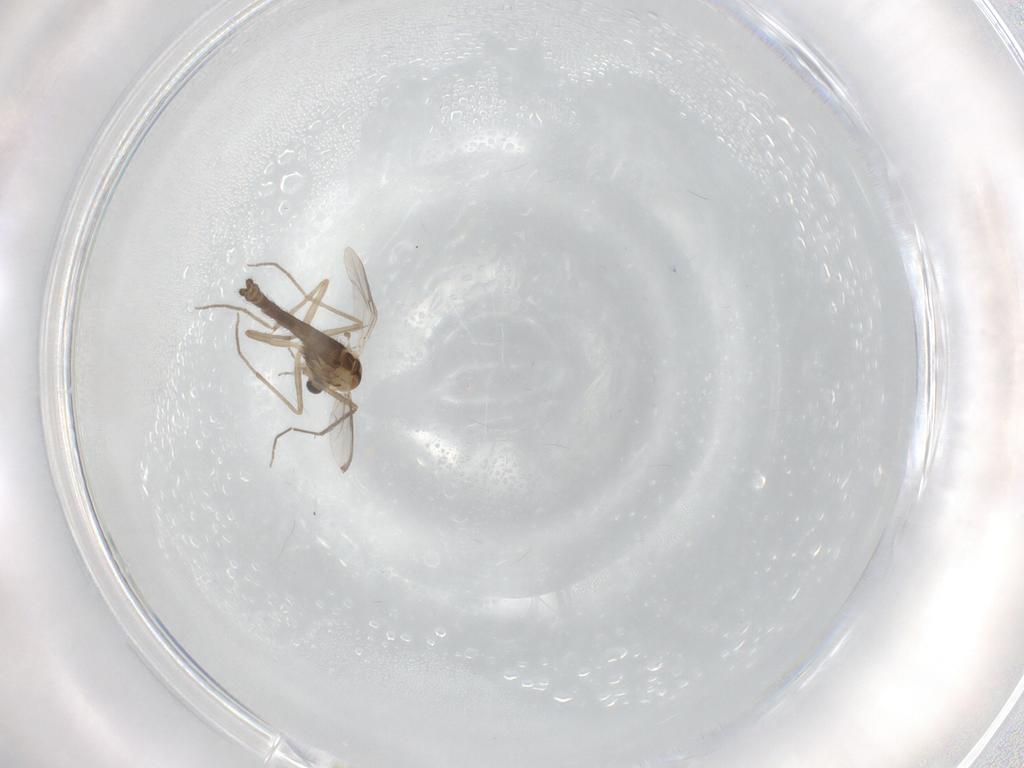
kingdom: Animalia
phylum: Arthropoda
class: Insecta
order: Diptera
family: Chironomidae
